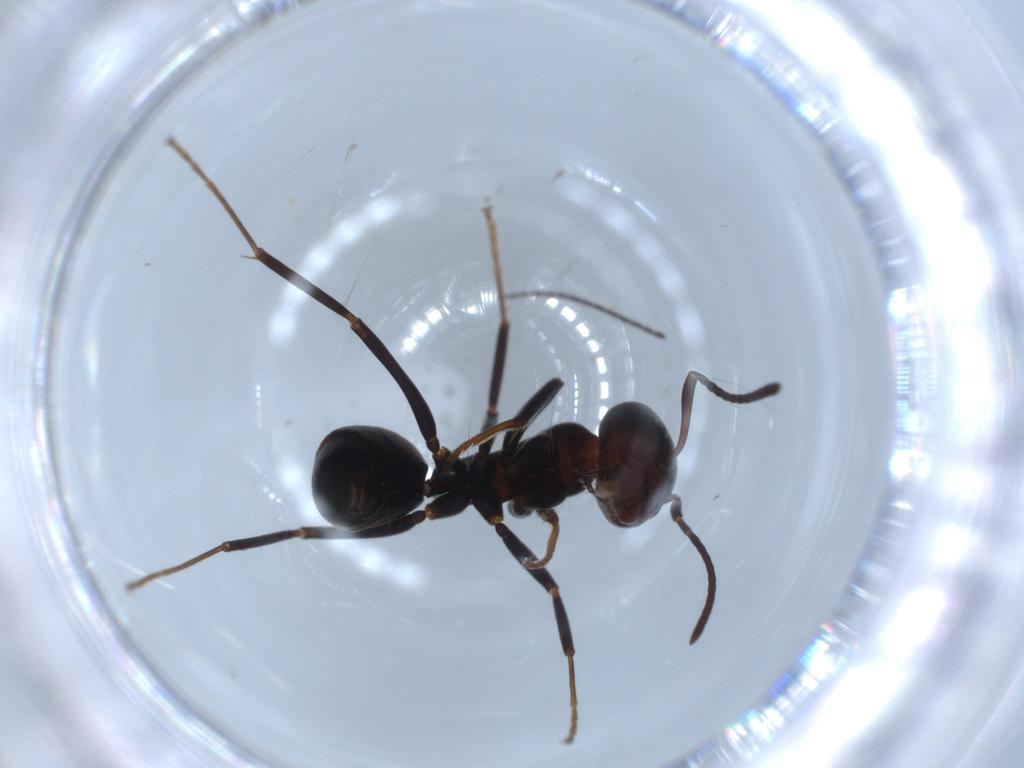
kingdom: Animalia
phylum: Arthropoda
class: Insecta
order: Hymenoptera
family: Formicidae
